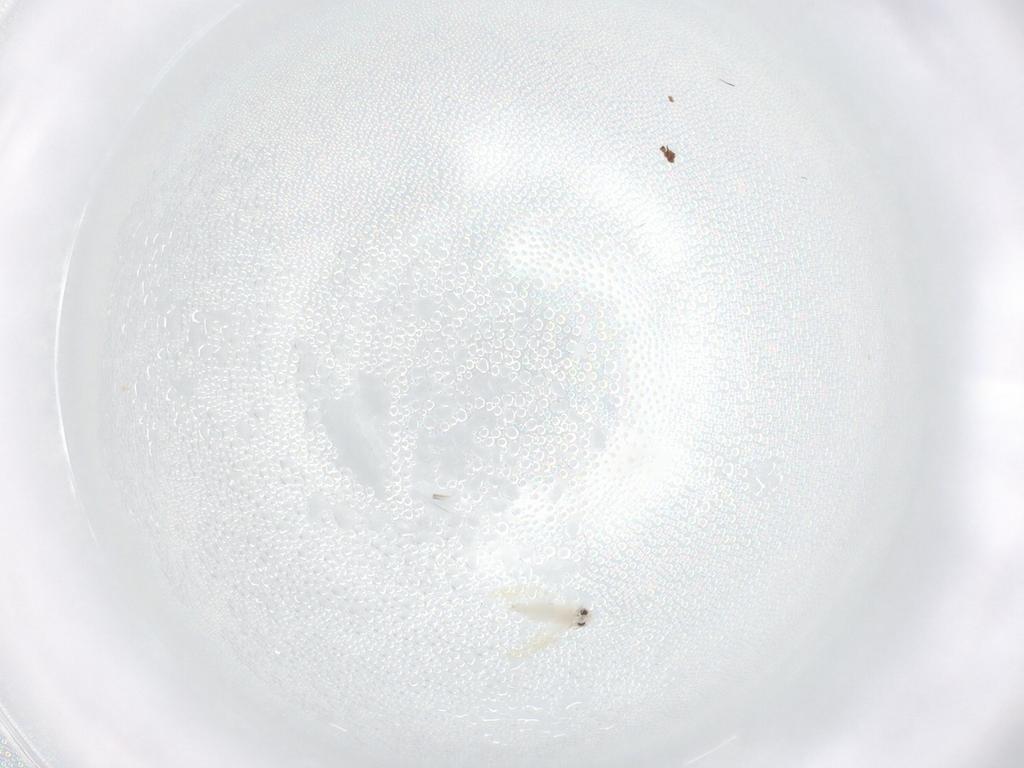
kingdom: Animalia
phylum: Arthropoda
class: Insecta
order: Hemiptera
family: Aleyrodidae
